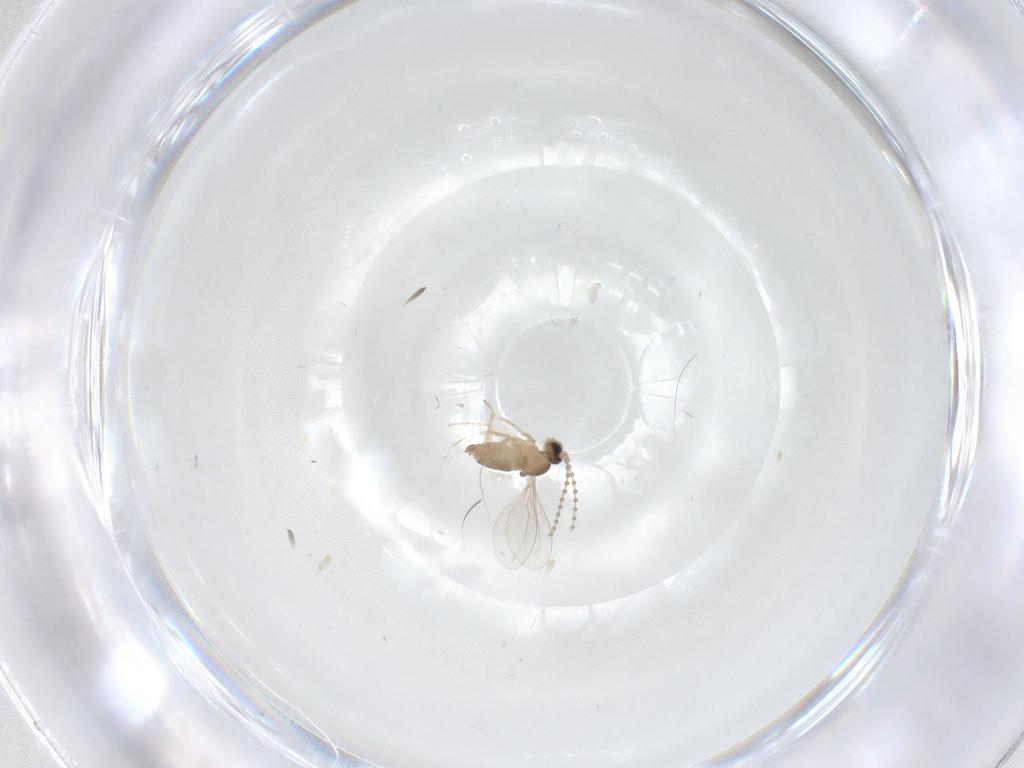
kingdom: Animalia
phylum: Arthropoda
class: Insecta
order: Diptera
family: Cecidomyiidae
